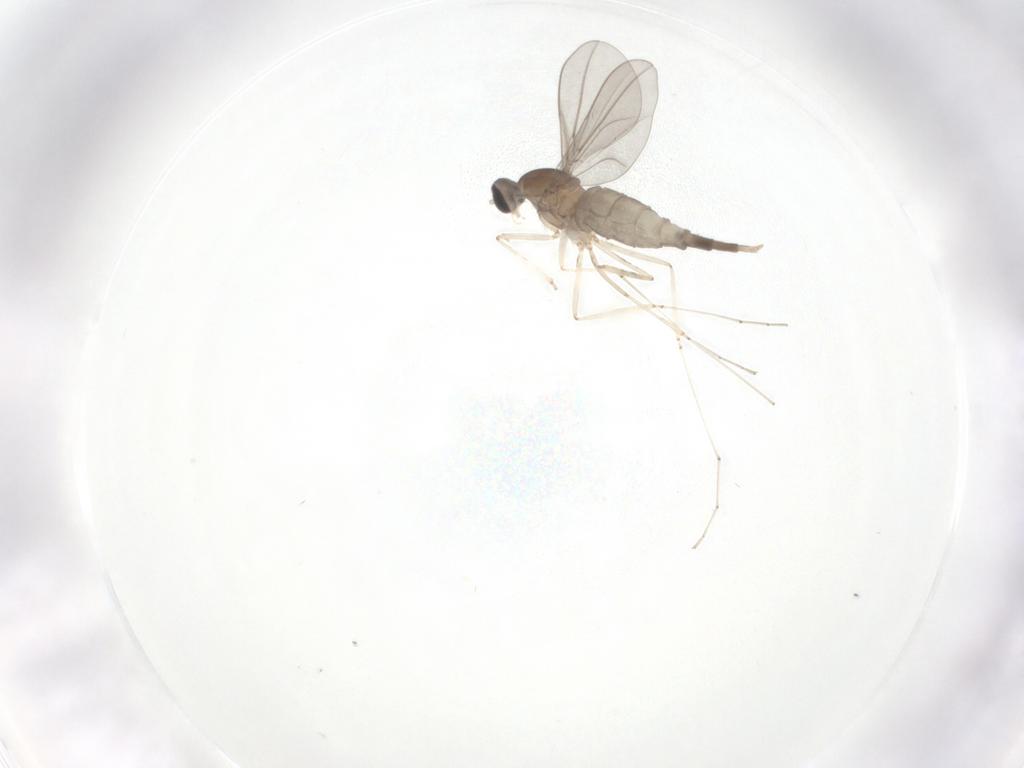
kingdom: Animalia
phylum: Arthropoda
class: Insecta
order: Diptera
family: Cecidomyiidae
